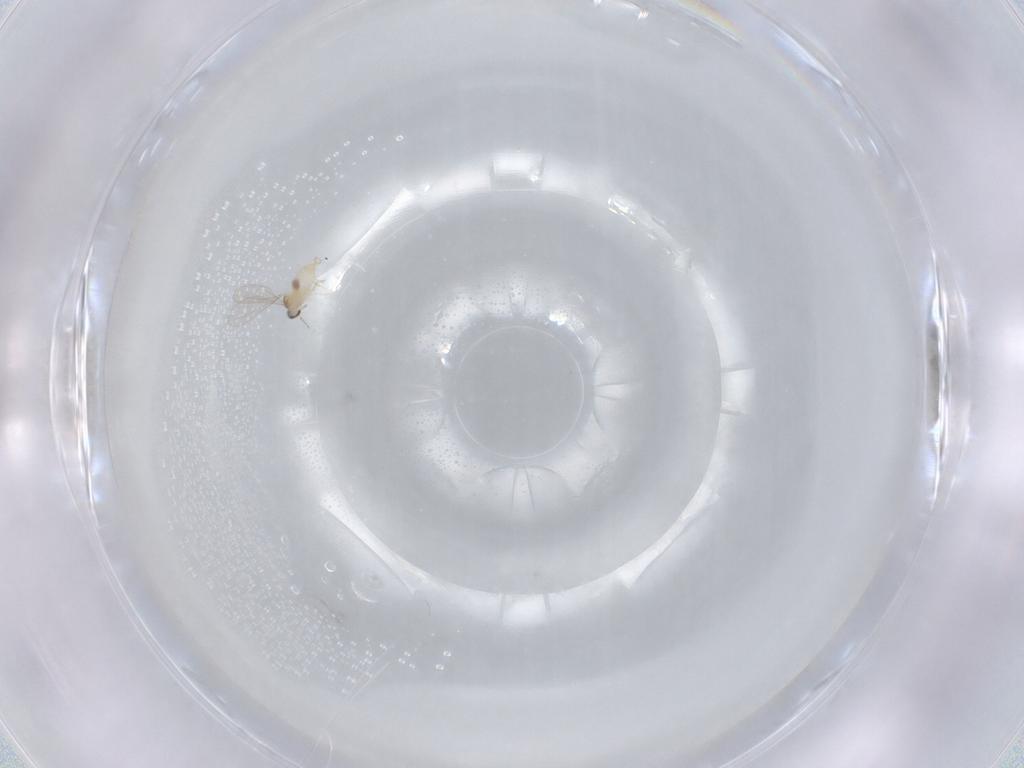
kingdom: Animalia
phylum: Arthropoda
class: Insecta
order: Diptera
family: Cecidomyiidae
